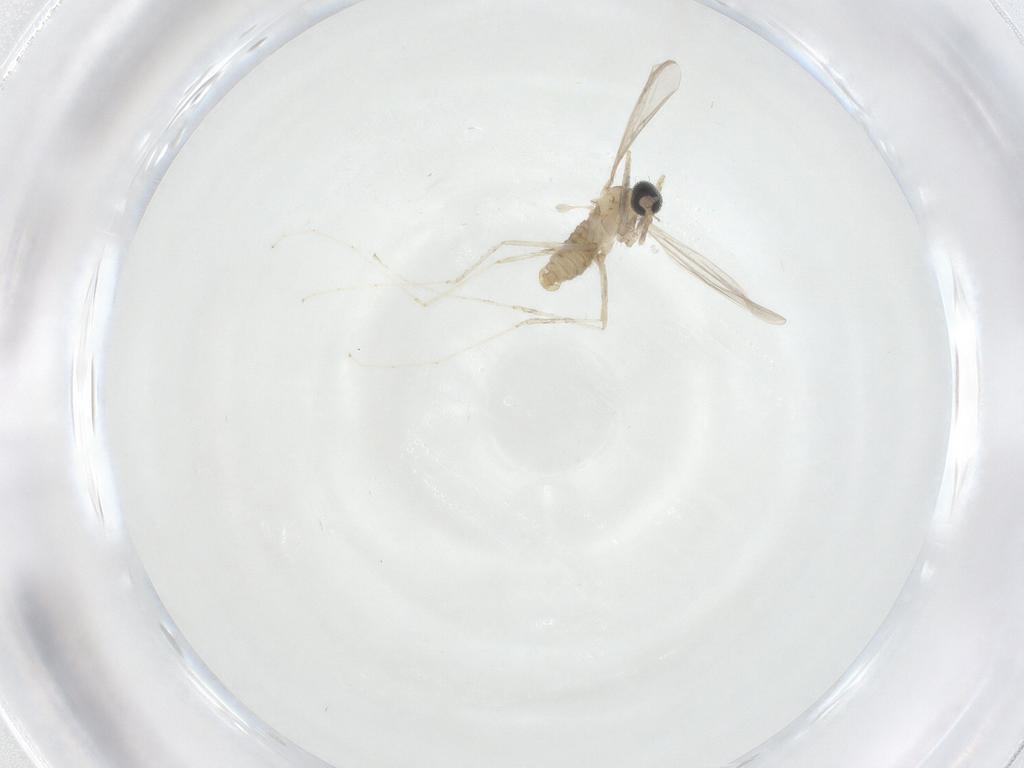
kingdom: Animalia
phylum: Arthropoda
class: Insecta
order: Diptera
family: Cecidomyiidae
